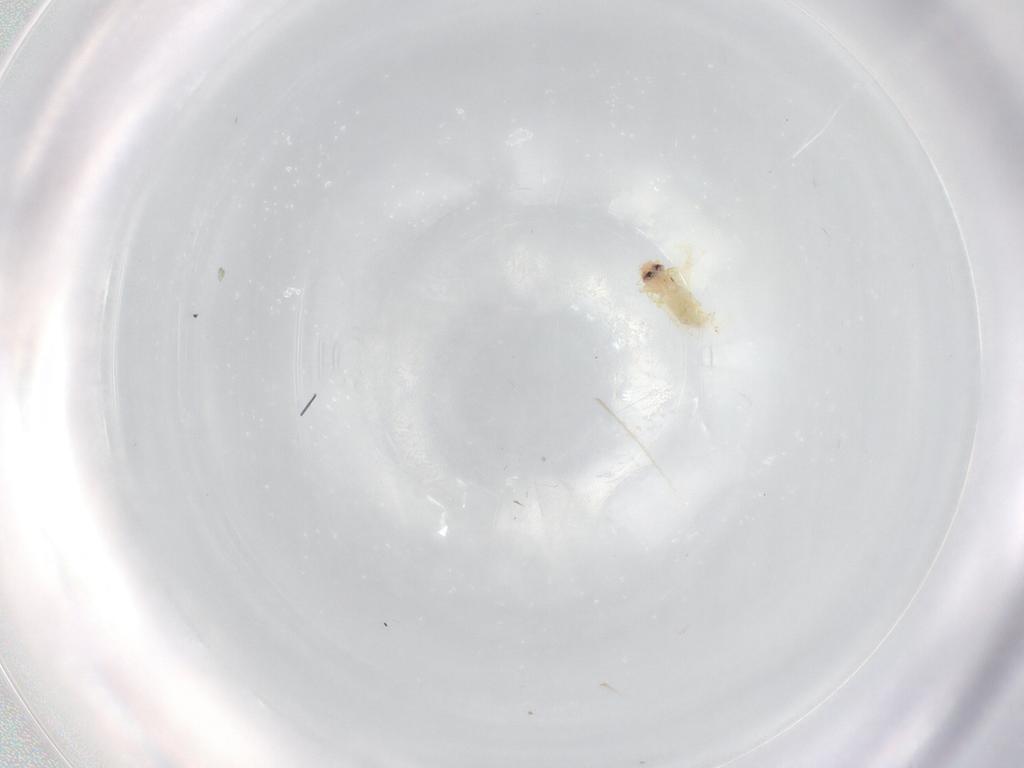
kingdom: Animalia
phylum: Arthropoda
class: Insecta
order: Hemiptera
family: Aleyrodidae
